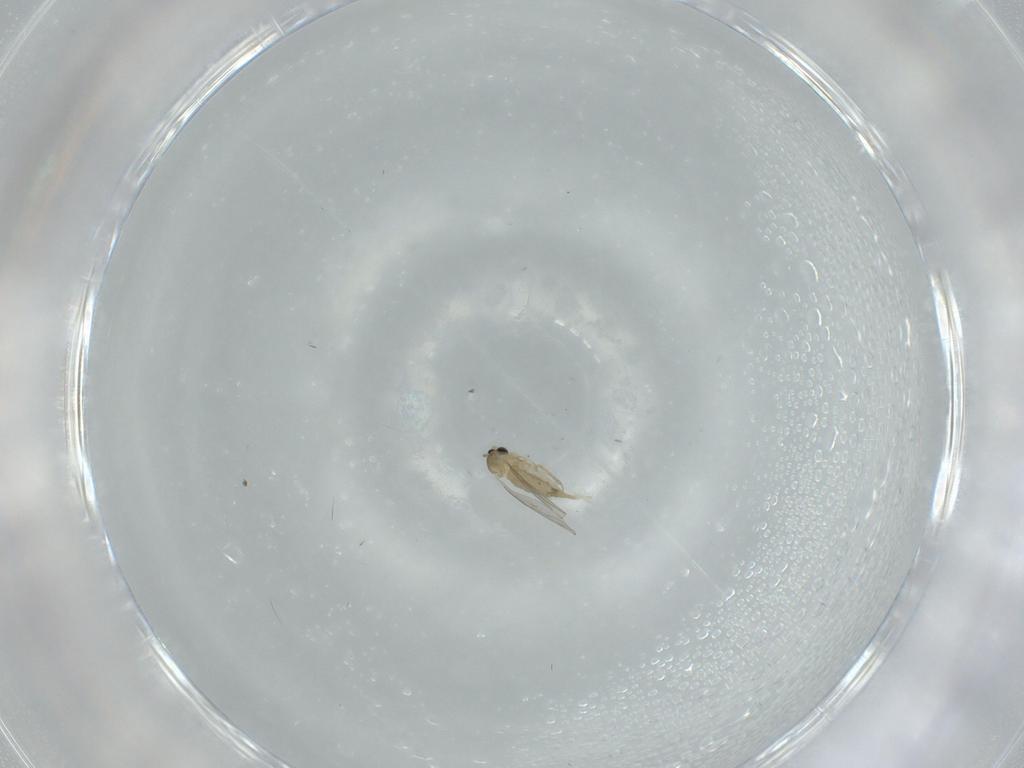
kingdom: Animalia
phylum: Arthropoda
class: Insecta
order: Diptera
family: Cecidomyiidae
